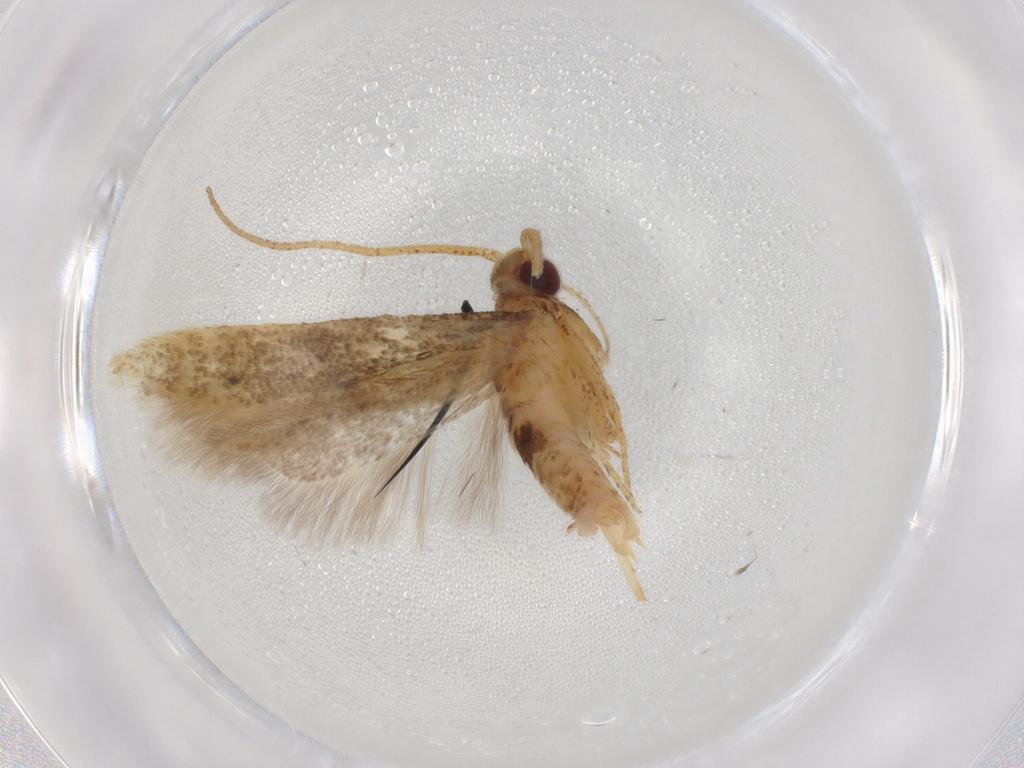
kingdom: Animalia
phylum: Arthropoda
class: Insecta
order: Lepidoptera
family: Gelechiidae
